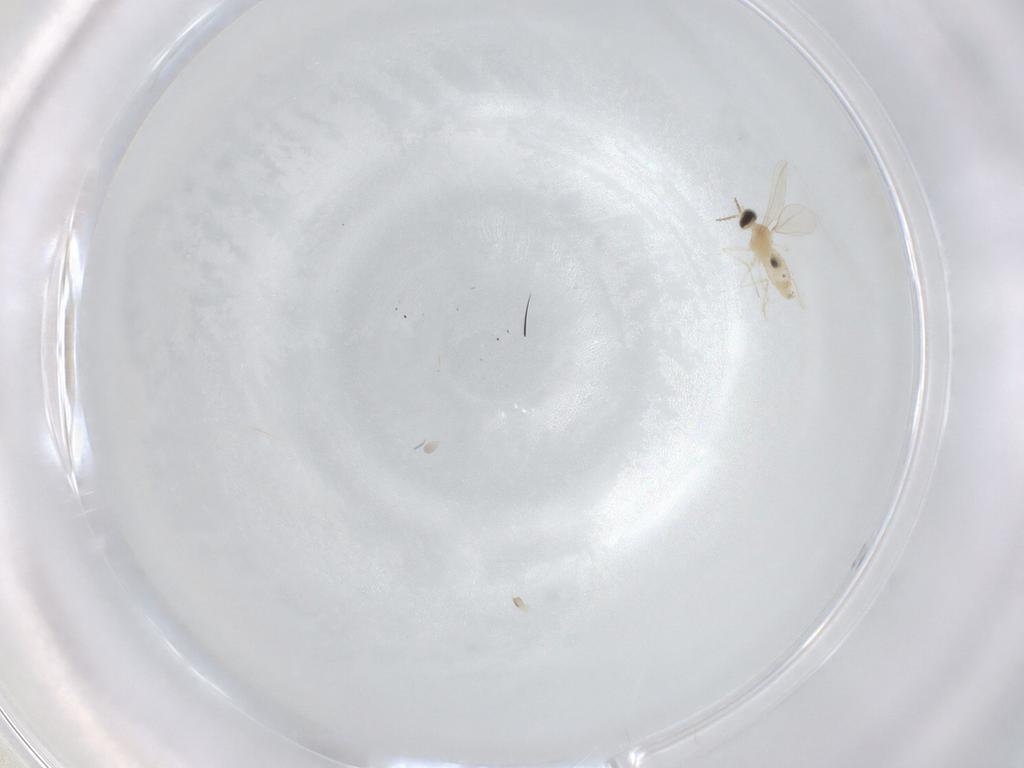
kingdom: Animalia
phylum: Arthropoda
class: Insecta
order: Diptera
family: Cecidomyiidae
